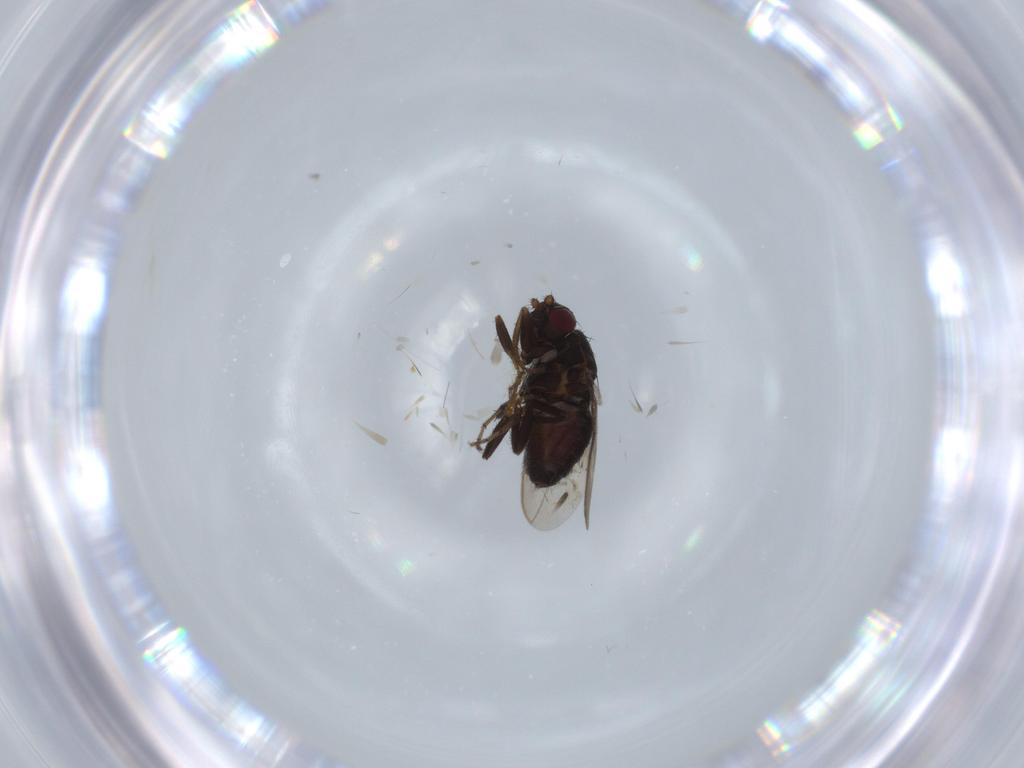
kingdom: Animalia
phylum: Arthropoda
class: Insecta
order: Diptera
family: Sphaeroceridae
